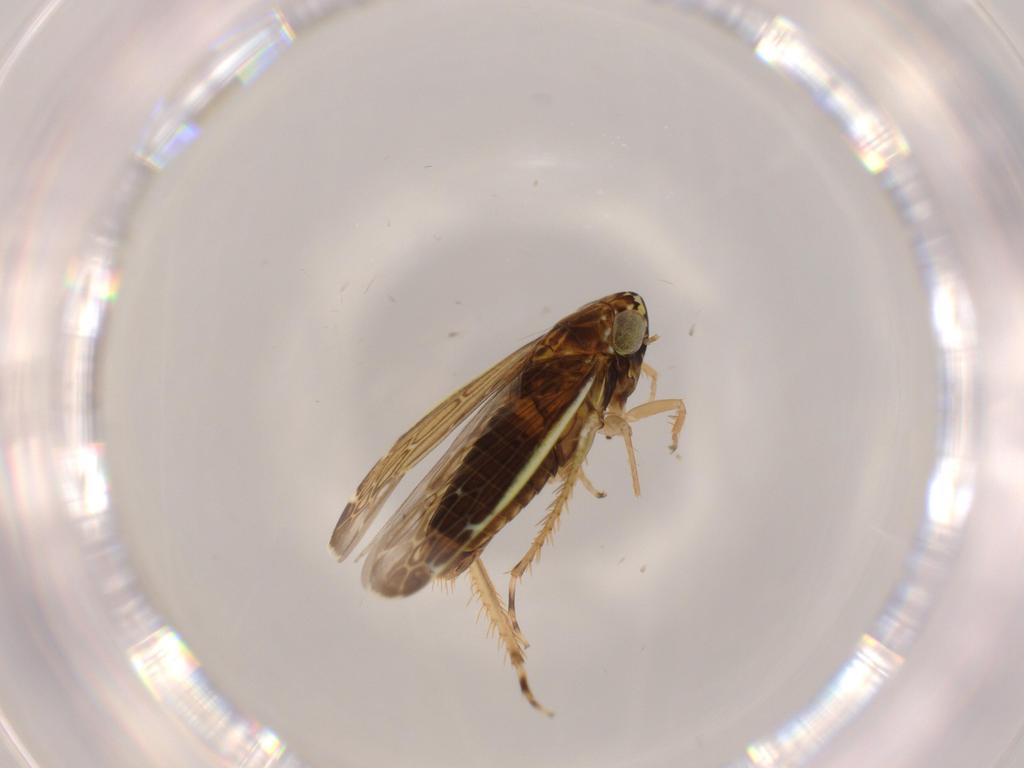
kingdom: Animalia
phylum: Arthropoda
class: Insecta
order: Hemiptera
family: Cicadellidae
